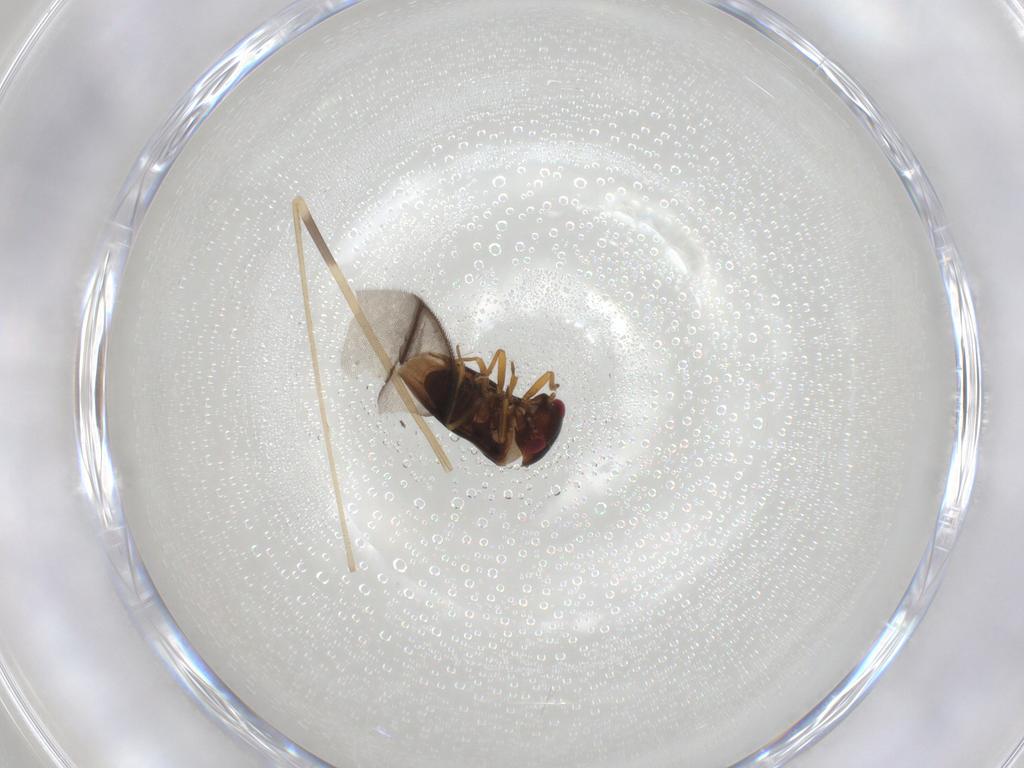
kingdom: Animalia
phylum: Arthropoda
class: Insecta
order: Hemiptera
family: Schizopteridae
